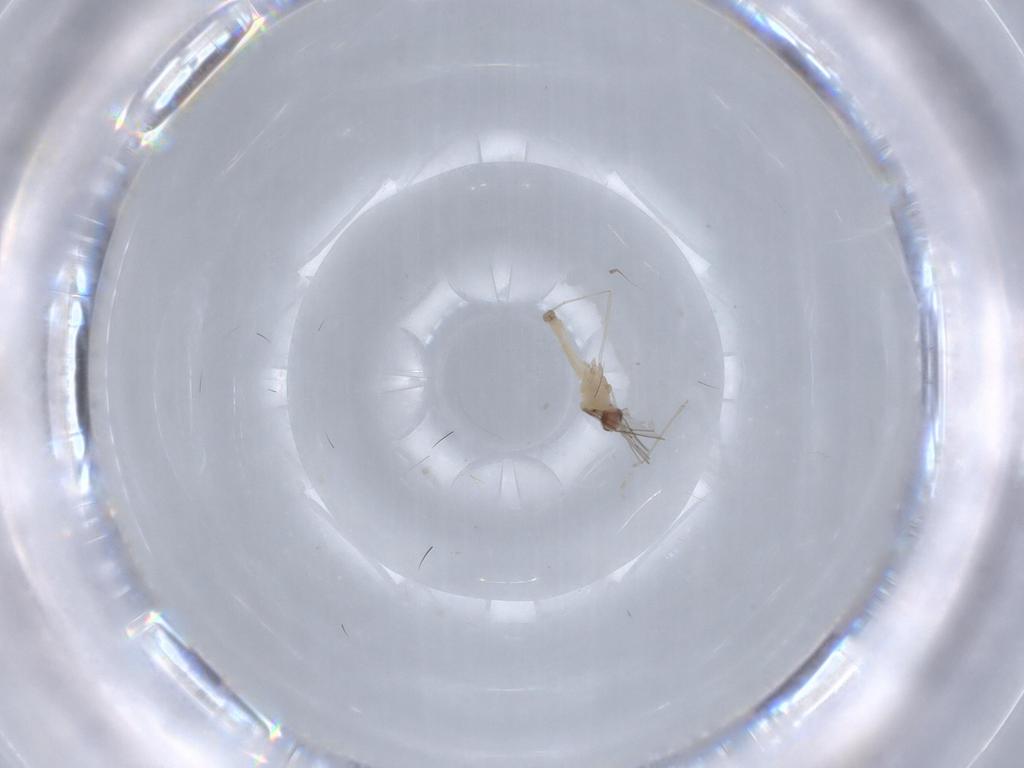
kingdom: Animalia
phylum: Arthropoda
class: Insecta
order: Diptera
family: Cecidomyiidae
